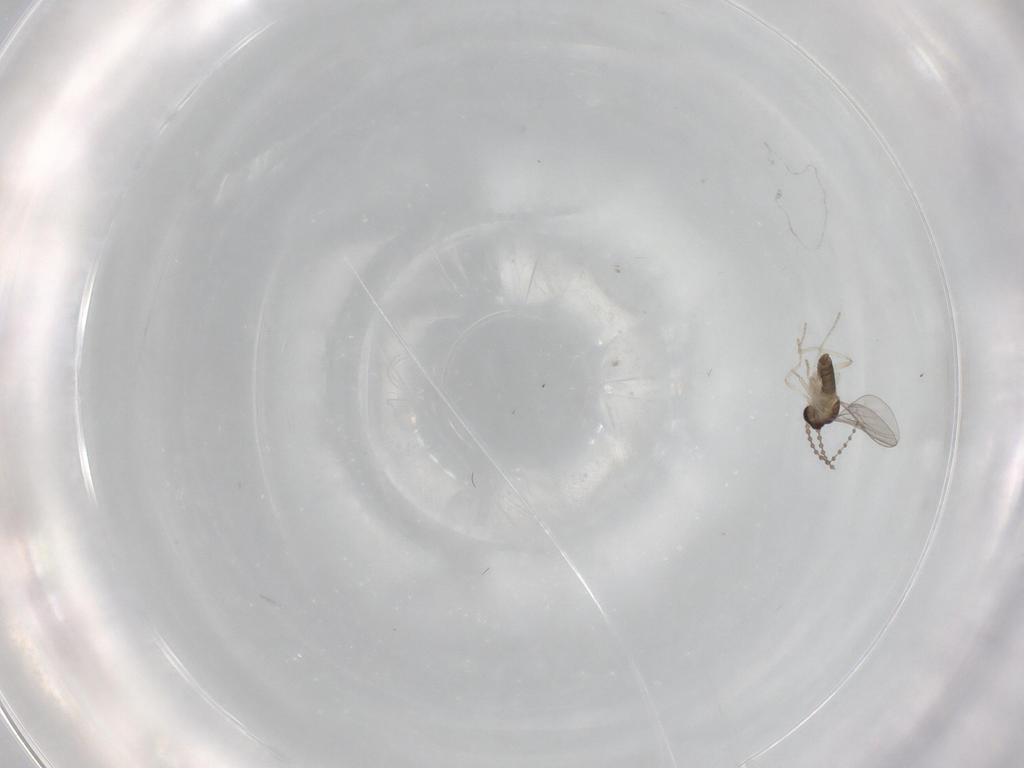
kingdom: Animalia
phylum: Arthropoda
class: Insecta
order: Diptera
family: Cecidomyiidae
